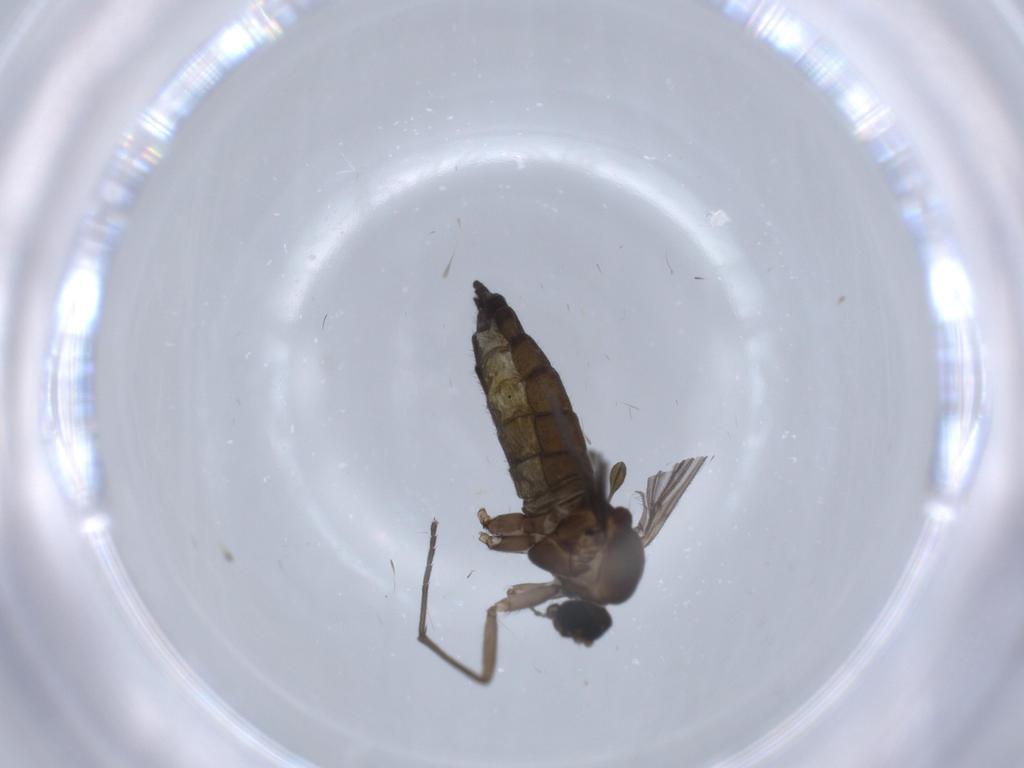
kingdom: Animalia
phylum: Arthropoda
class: Insecta
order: Diptera
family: Sciaridae
